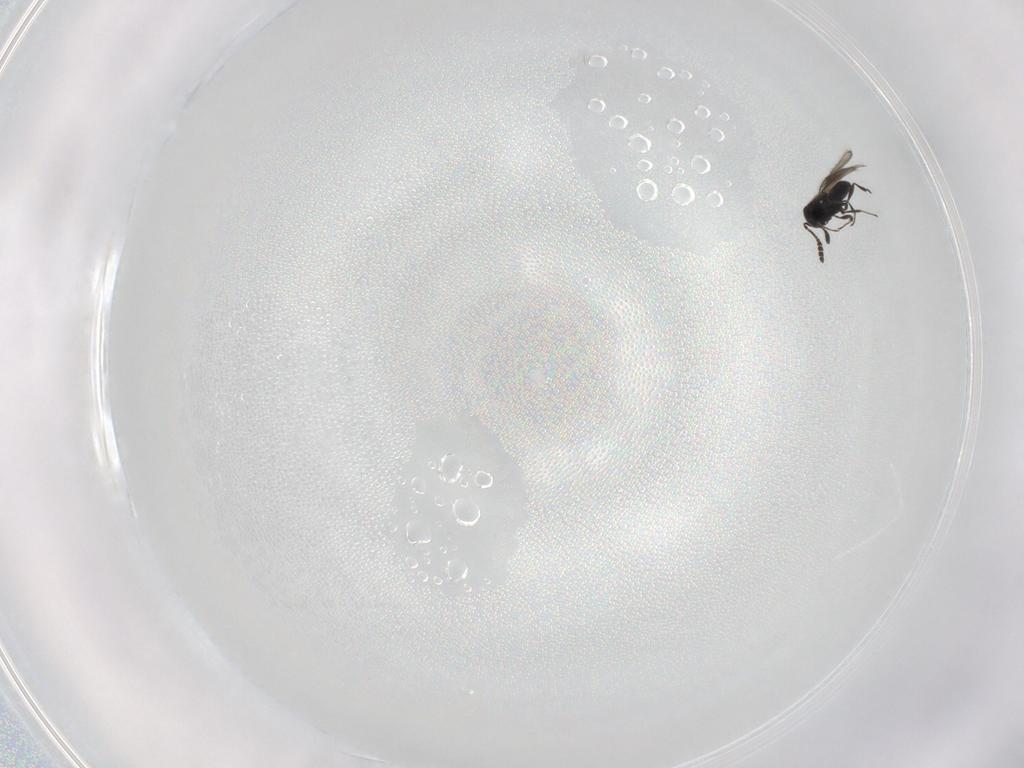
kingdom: Animalia
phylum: Arthropoda
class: Insecta
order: Hymenoptera
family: Scelionidae
